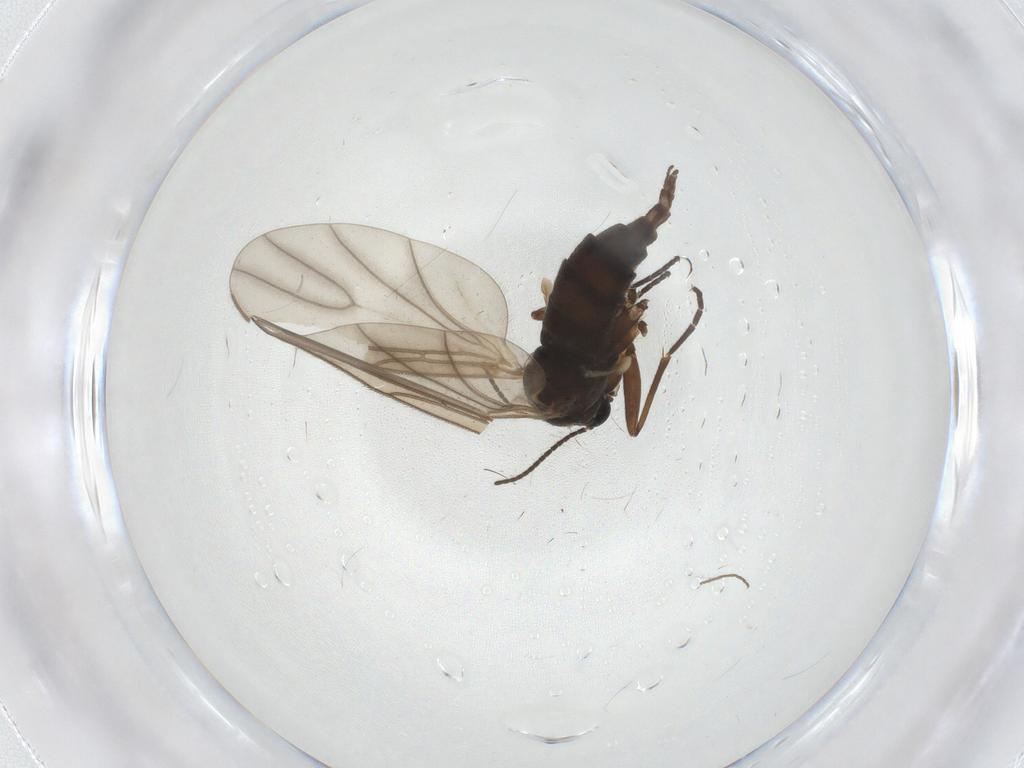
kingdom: Animalia
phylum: Arthropoda
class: Insecta
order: Diptera
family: Sciaridae
